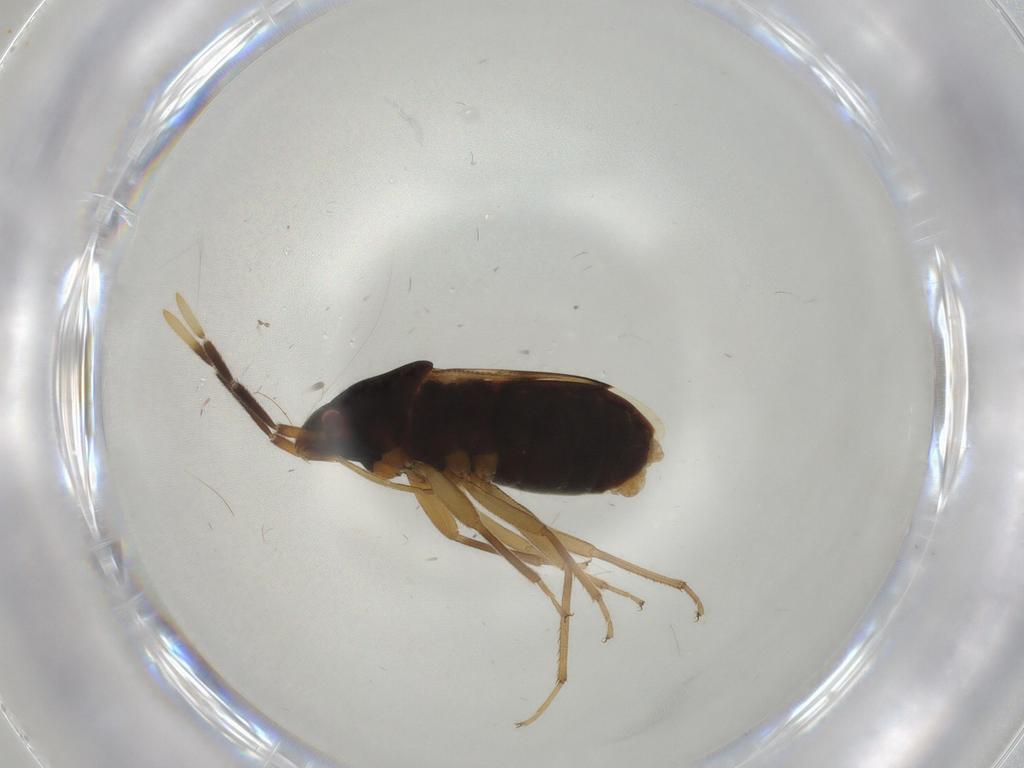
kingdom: Animalia
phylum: Arthropoda
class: Insecta
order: Hemiptera
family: Rhyparochromidae
